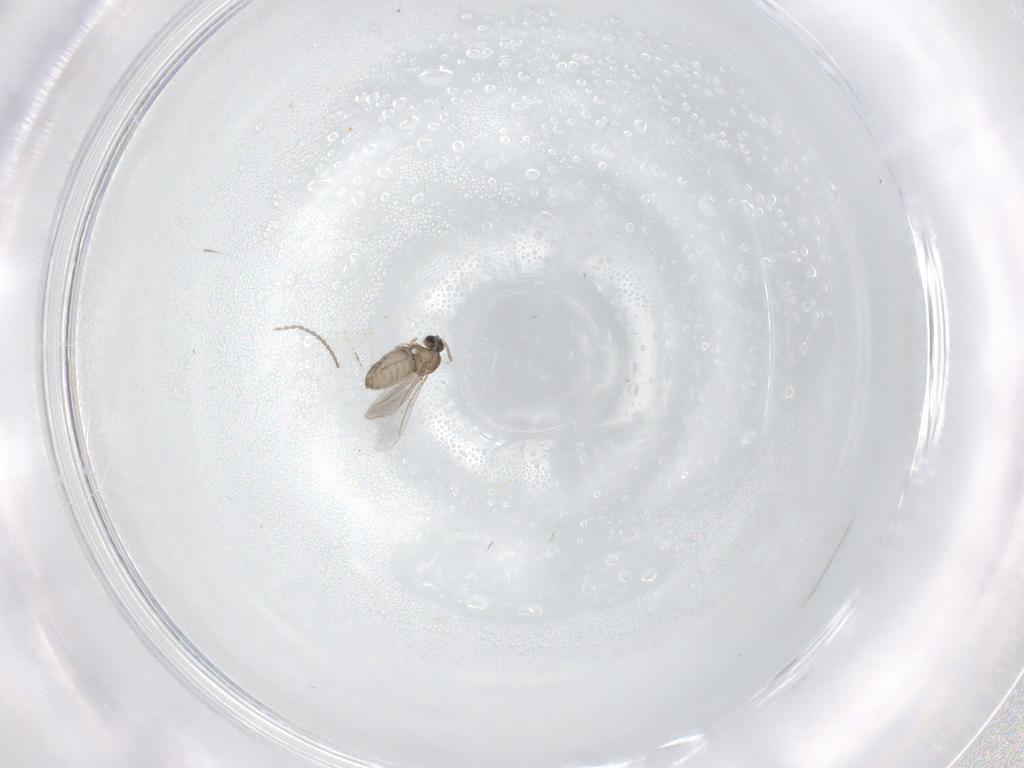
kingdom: Animalia
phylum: Arthropoda
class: Insecta
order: Diptera
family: Cecidomyiidae
